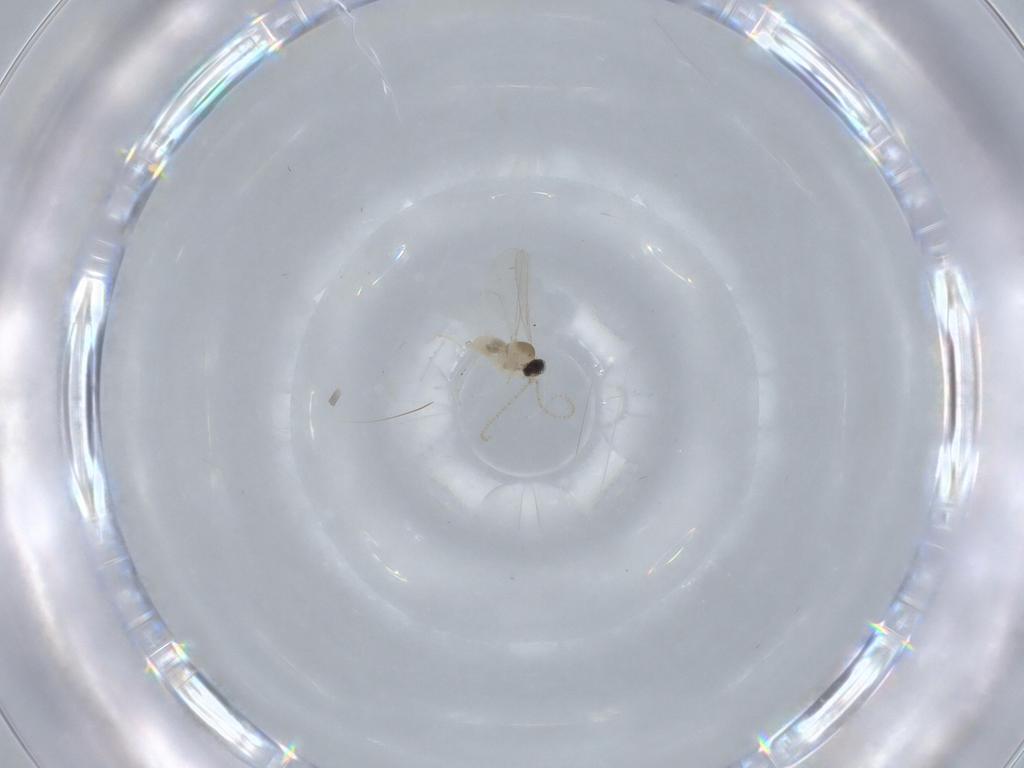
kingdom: Animalia
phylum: Arthropoda
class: Insecta
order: Diptera
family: Cecidomyiidae
